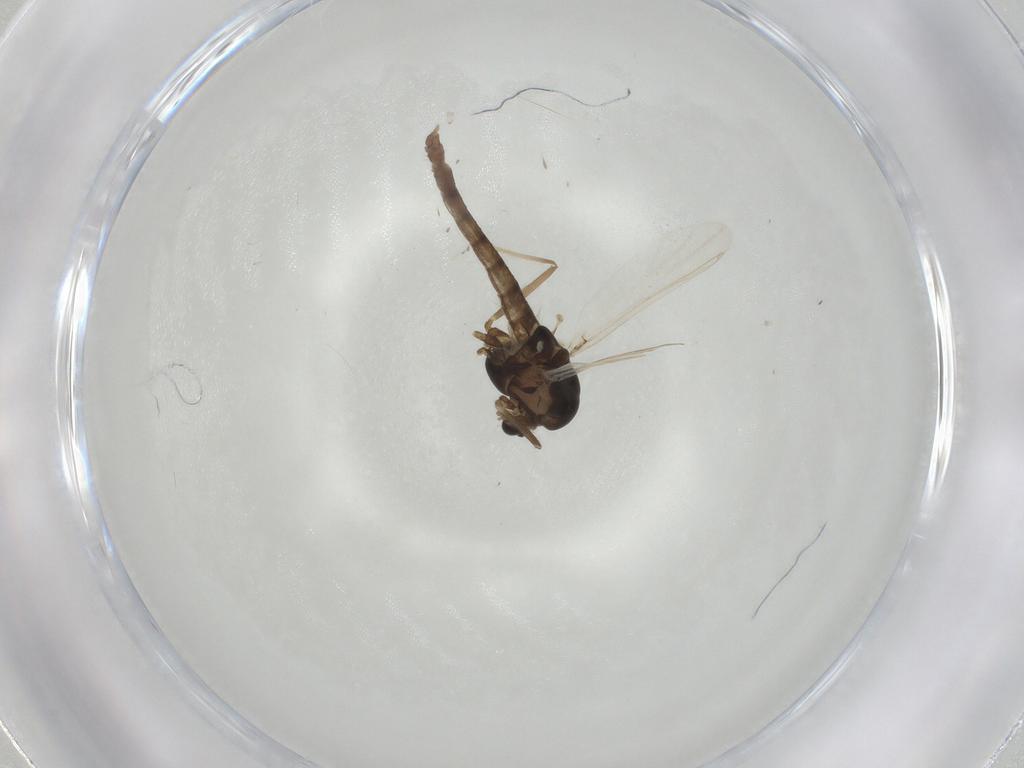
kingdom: Animalia
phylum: Arthropoda
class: Insecta
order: Diptera
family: Chironomidae
